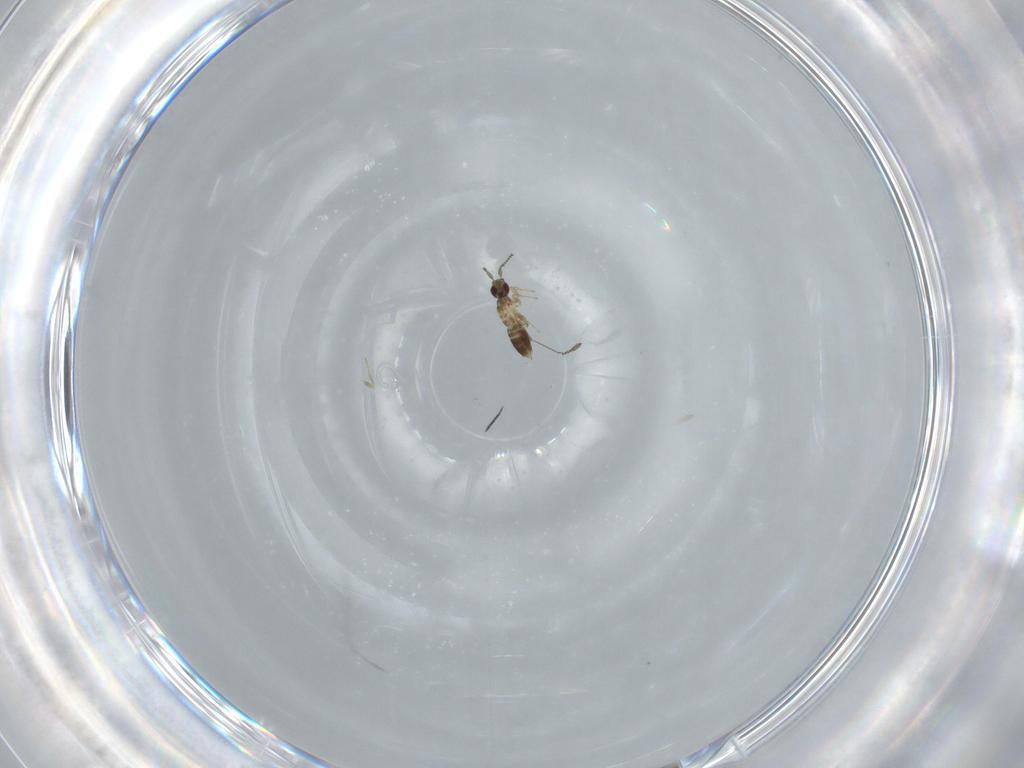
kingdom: Animalia
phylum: Arthropoda
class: Insecta
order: Hymenoptera
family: Mymaridae
